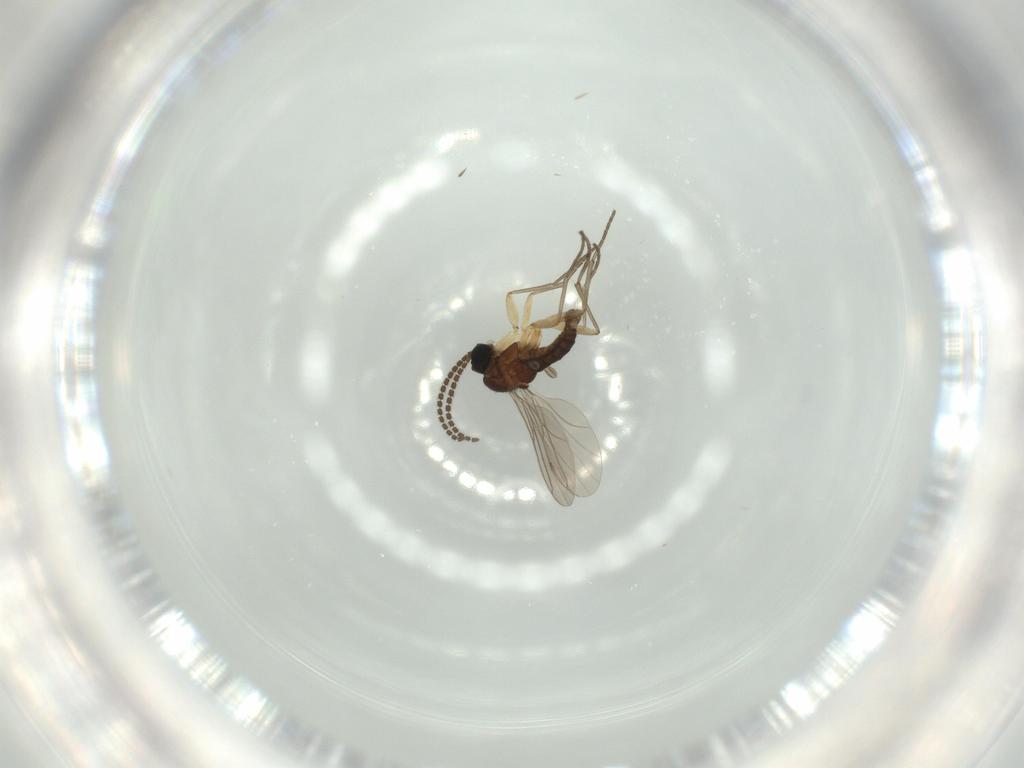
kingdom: Animalia
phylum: Arthropoda
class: Insecta
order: Diptera
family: Sciaridae
